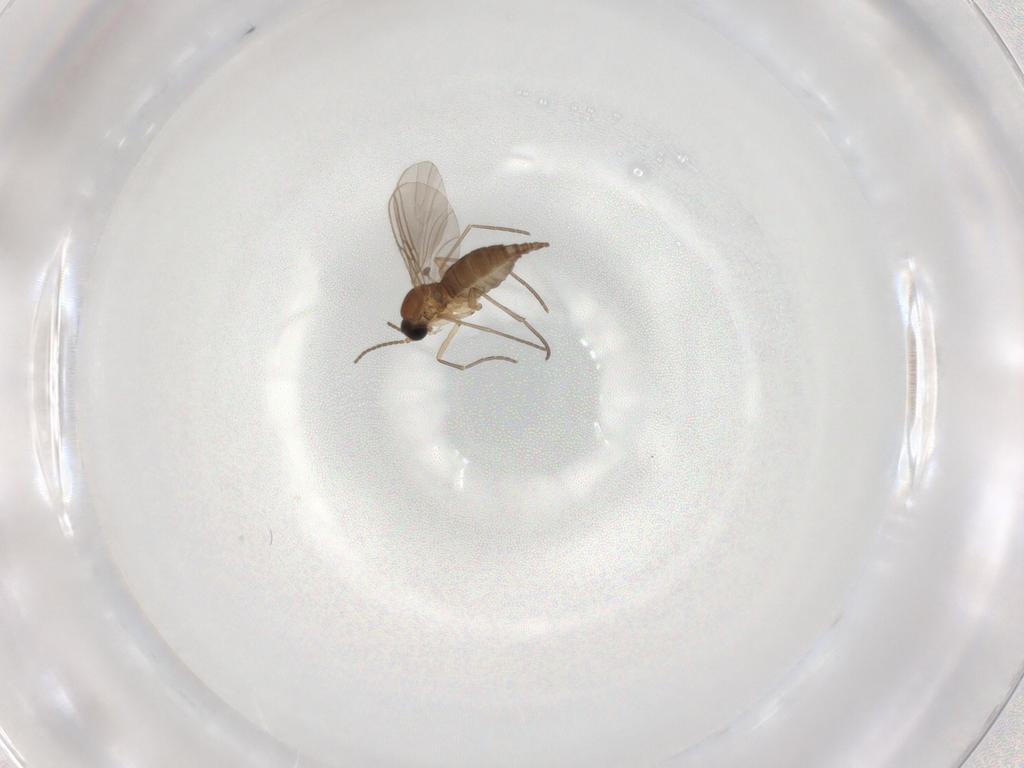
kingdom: Animalia
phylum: Arthropoda
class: Insecta
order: Diptera
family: Sciaridae
